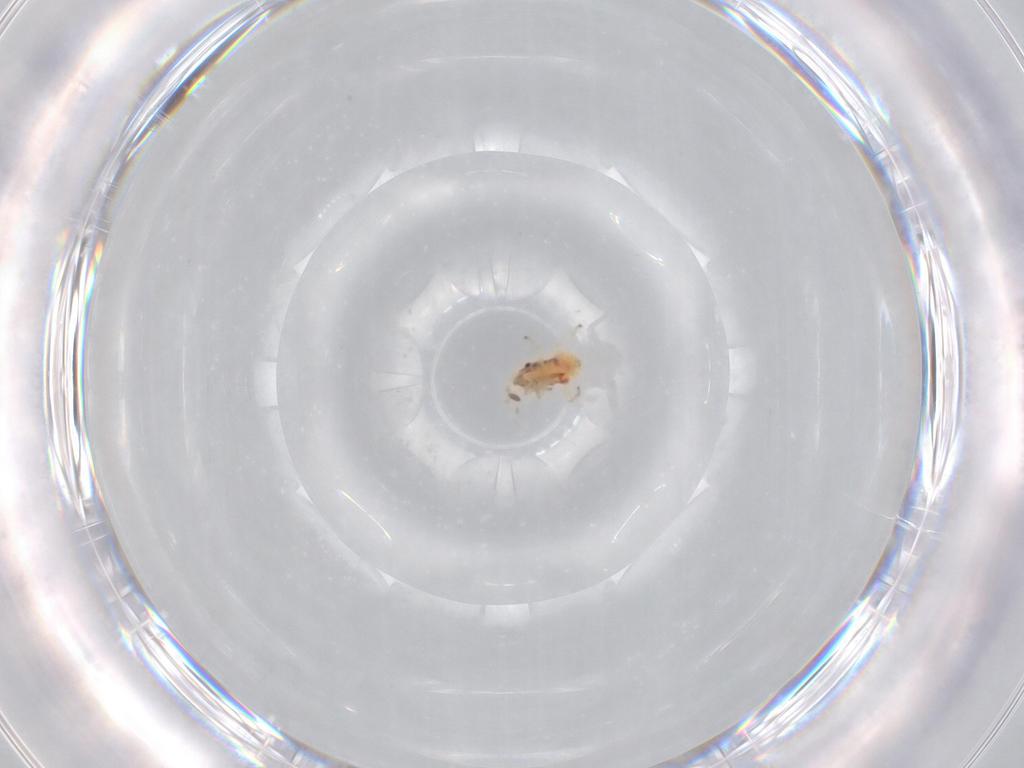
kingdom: Animalia
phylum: Arthropoda
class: Insecta
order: Hemiptera
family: Lygaeidae
